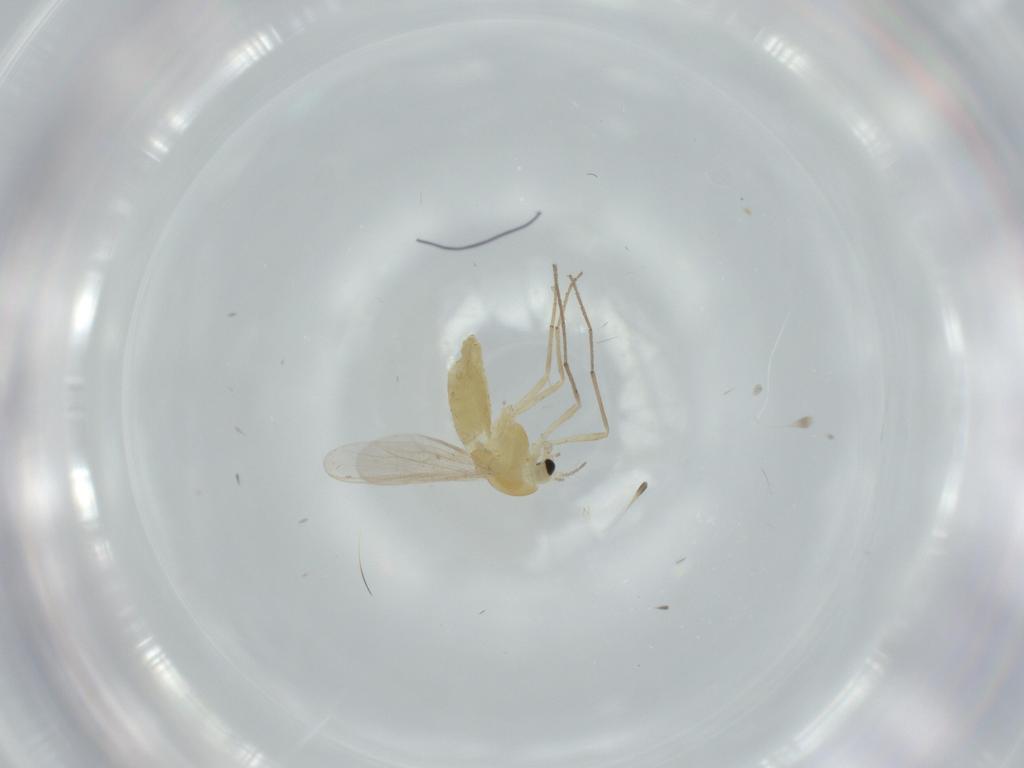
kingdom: Animalia
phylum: Arthropoda
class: Insecta
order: Diptera
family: Chironomidae
